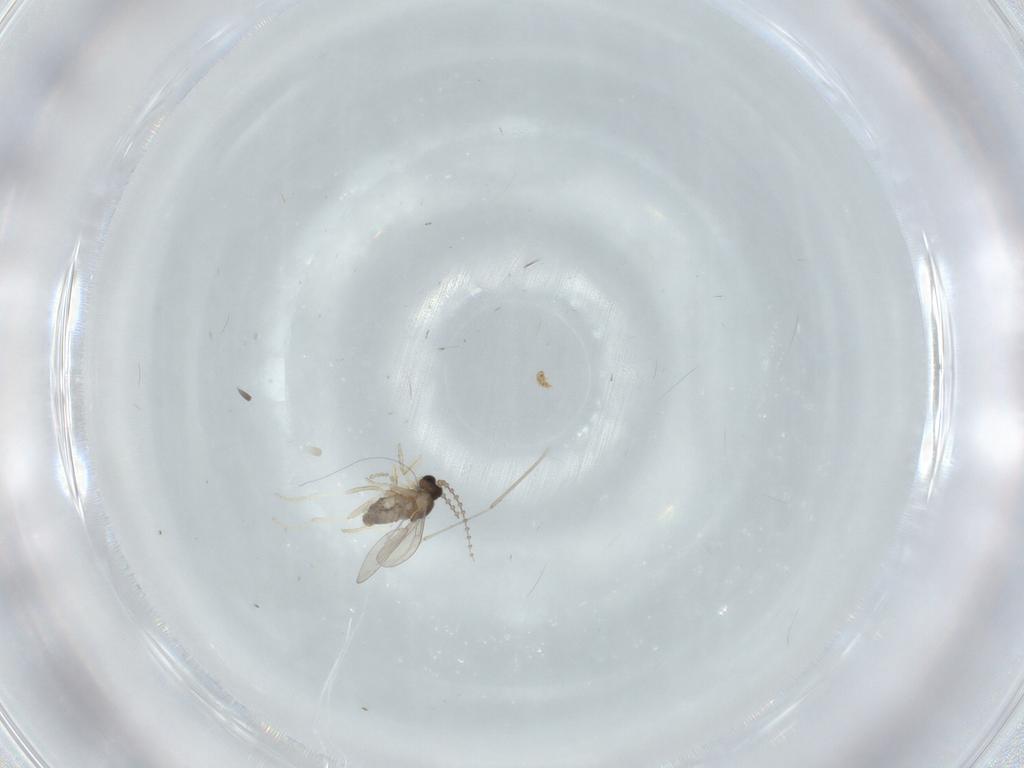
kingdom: Animalia
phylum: Arthropoda
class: Insecta
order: Diptera
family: Cecidomyiidae
